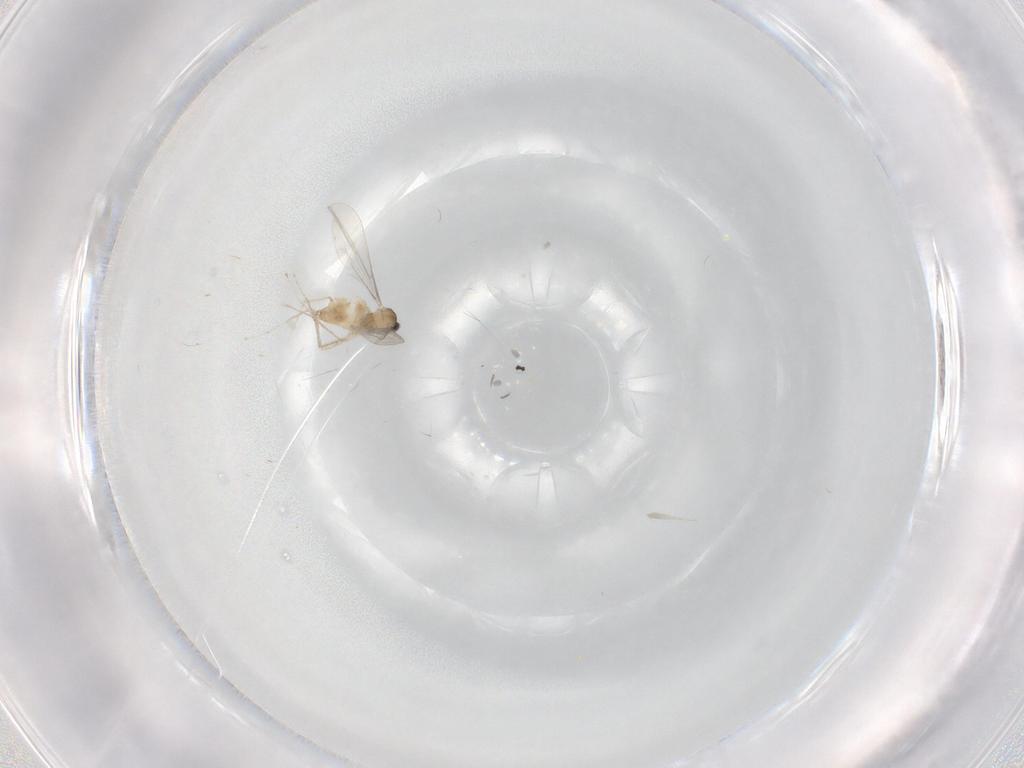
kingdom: Animalia
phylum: Arthropoda
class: Insecta
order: Diptera
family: Cecidomyiidae
